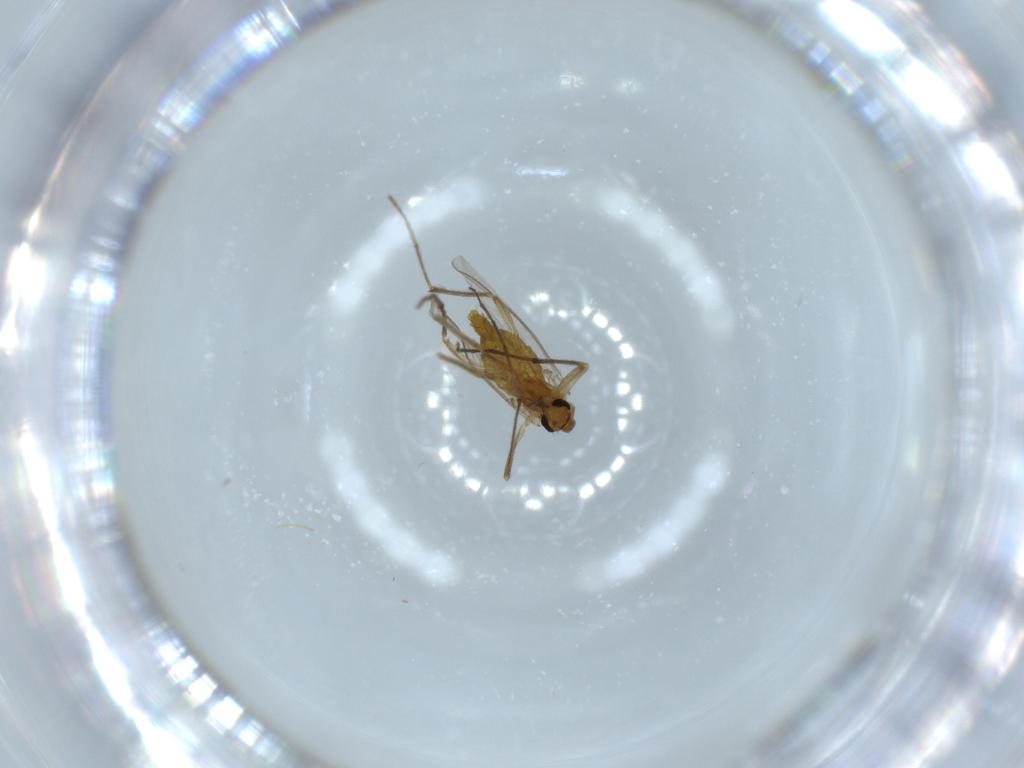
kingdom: Animalia
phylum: Arthropoda
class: Insecta
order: Diptera
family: Chironomidae
